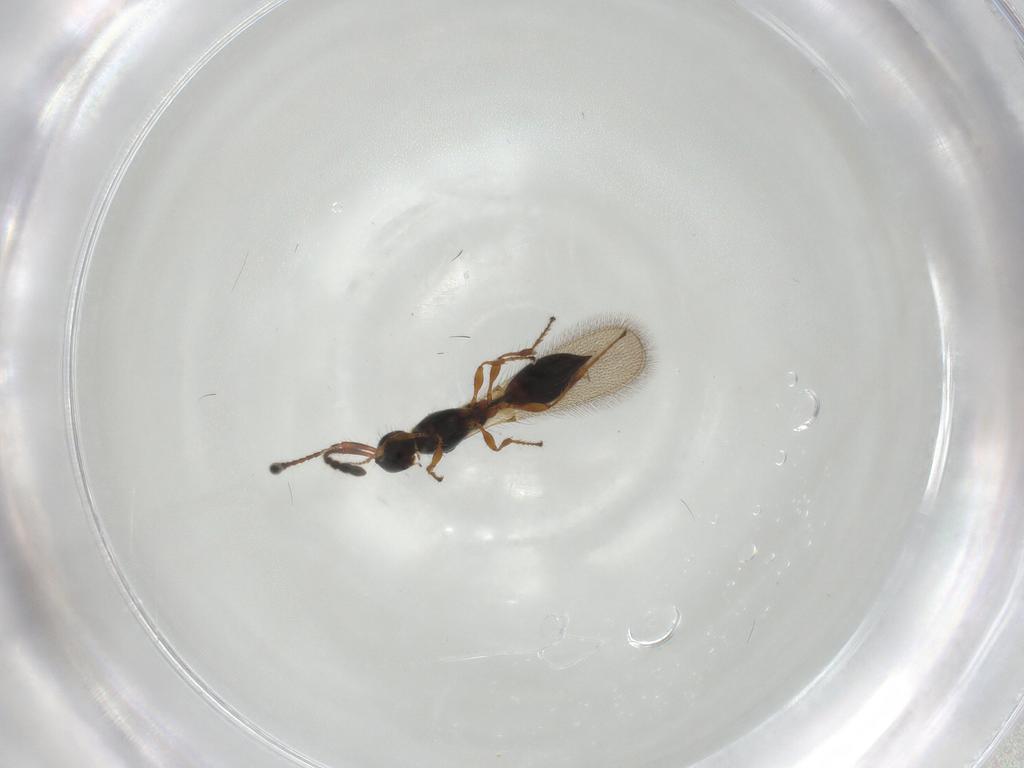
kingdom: Animalia
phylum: Arthropoda
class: Insecta
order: Hymenoptera
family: Diapriidae
